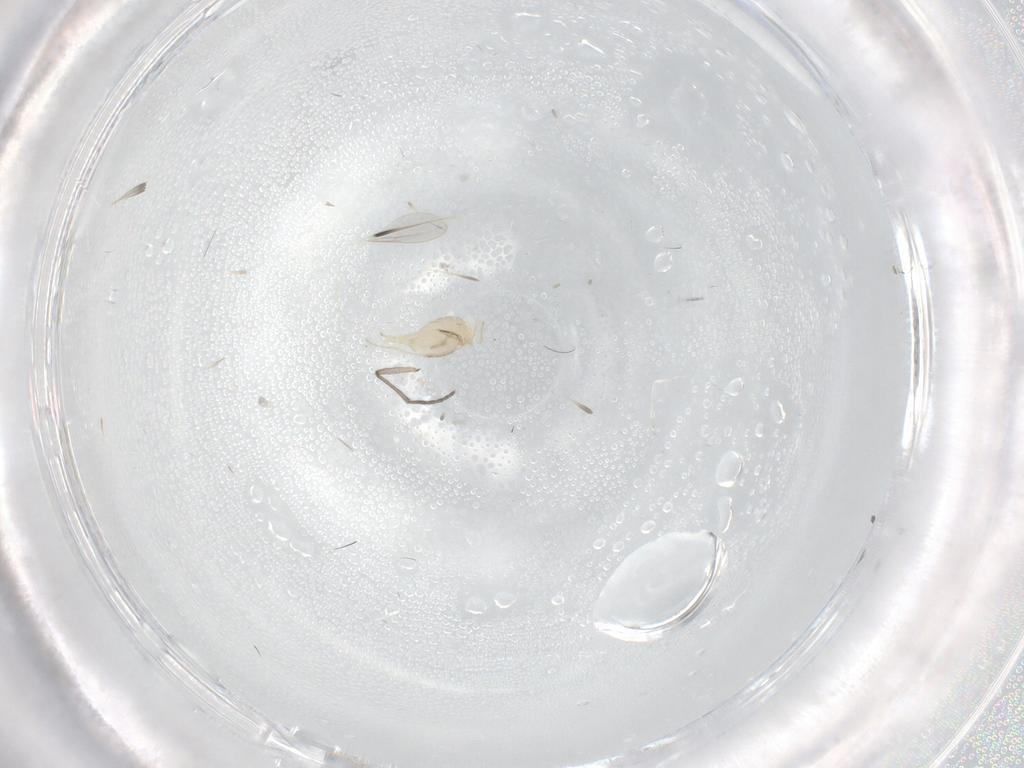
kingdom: Animalia
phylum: Arthropoda
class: Insecta
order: Diptera
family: Cecidomyiidae
